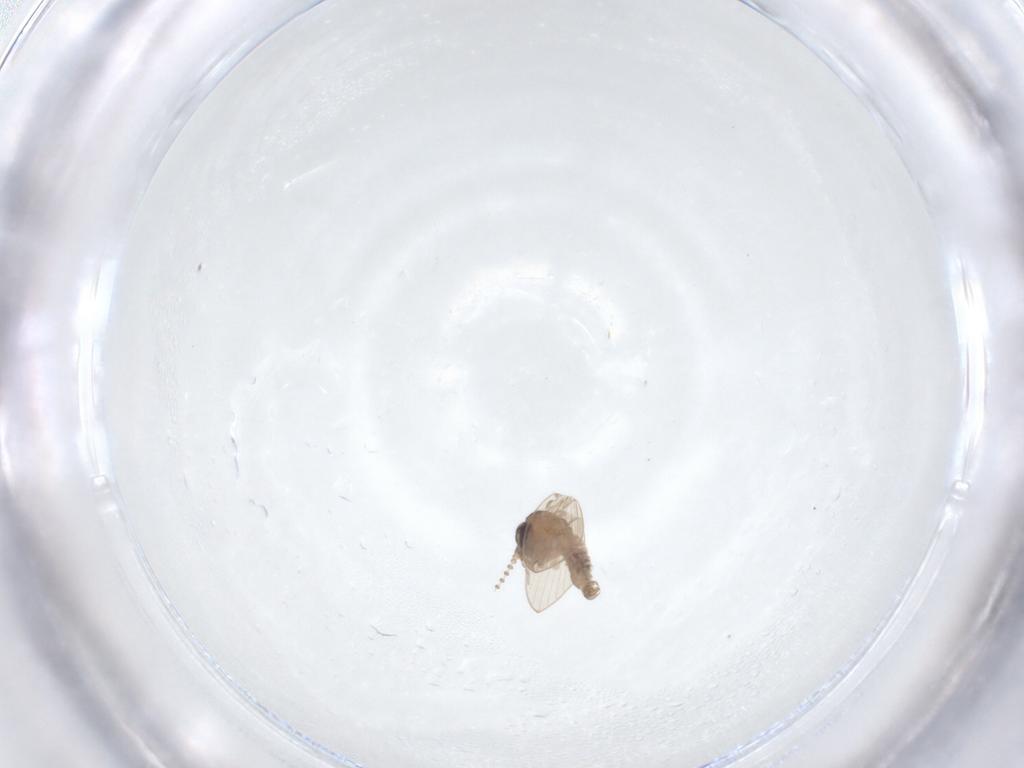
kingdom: Animalia
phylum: Arthropoda
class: Insecta
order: Diptera
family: Psychodidae
